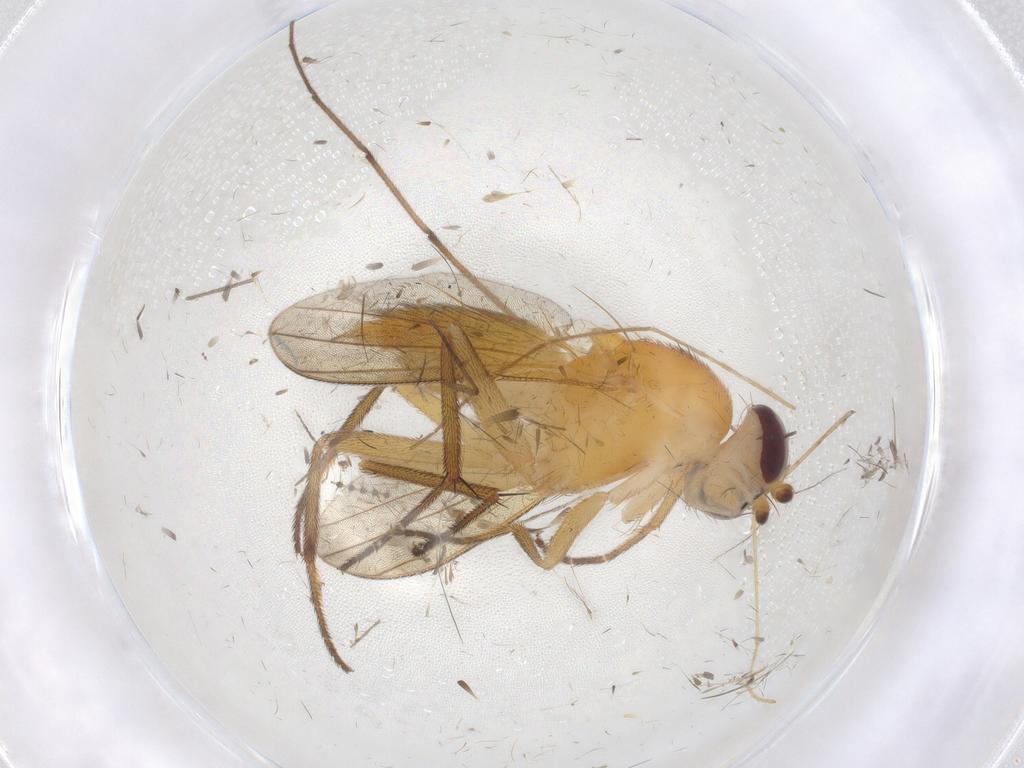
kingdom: Animalia
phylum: Arthropoda
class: Insecta
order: Diptera
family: Clusiidae
